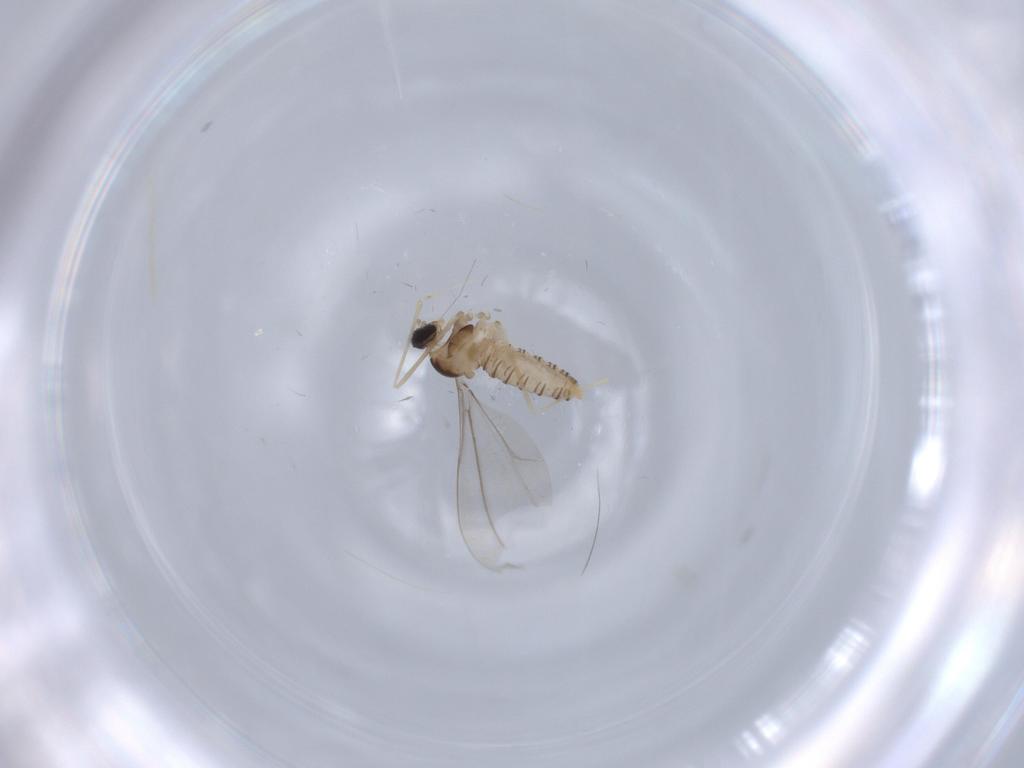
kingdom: Animalia
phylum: Arthropoda
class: Insecta
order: Diptera
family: Cecidomyiidae
